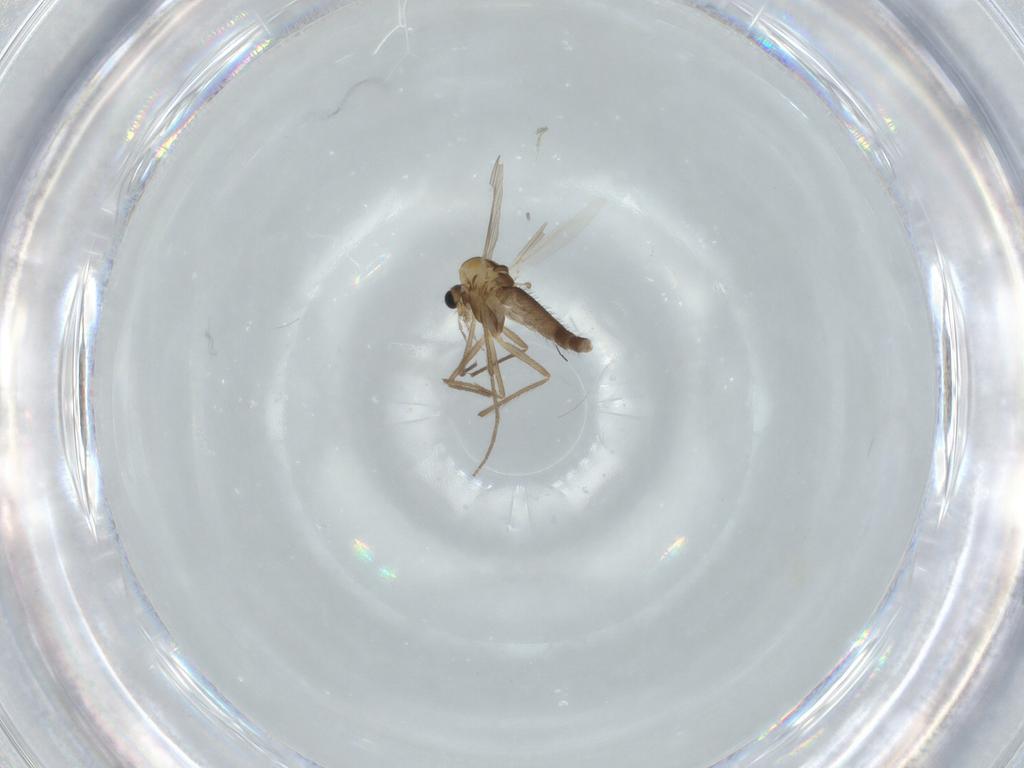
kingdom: Animalia
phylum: Arthropoda
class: Insecta
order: Diptera
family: Chironomidae
